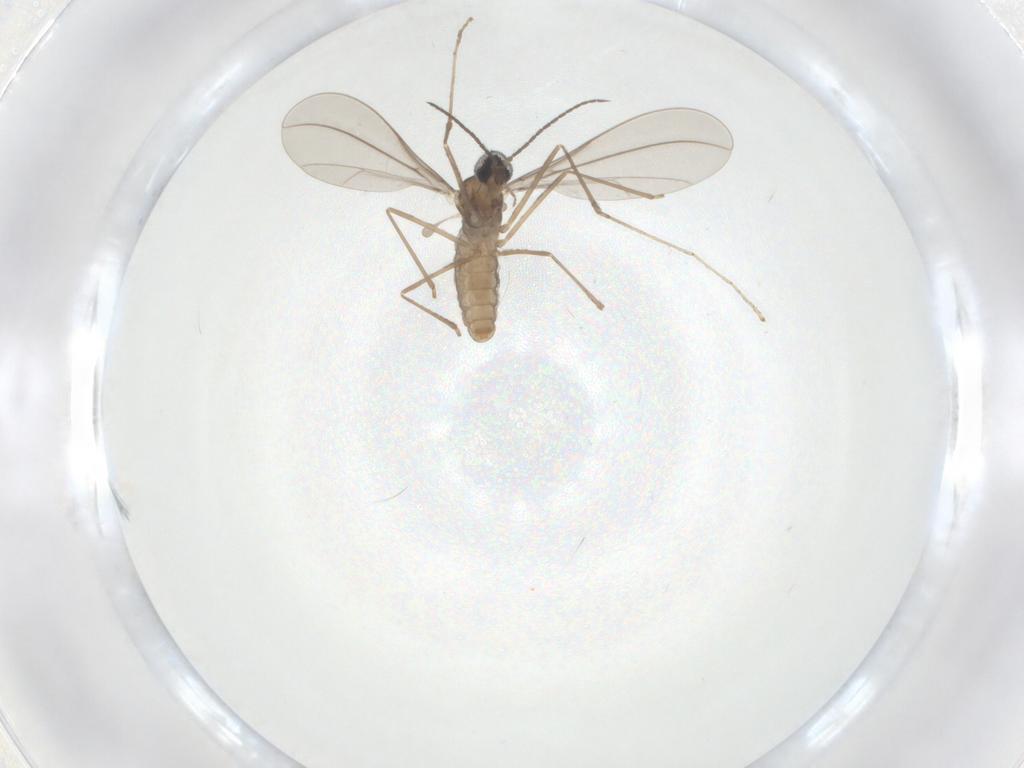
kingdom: Animalia
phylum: Arthropoda
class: Insecta
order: Diptera
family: Cecidomyiidae
